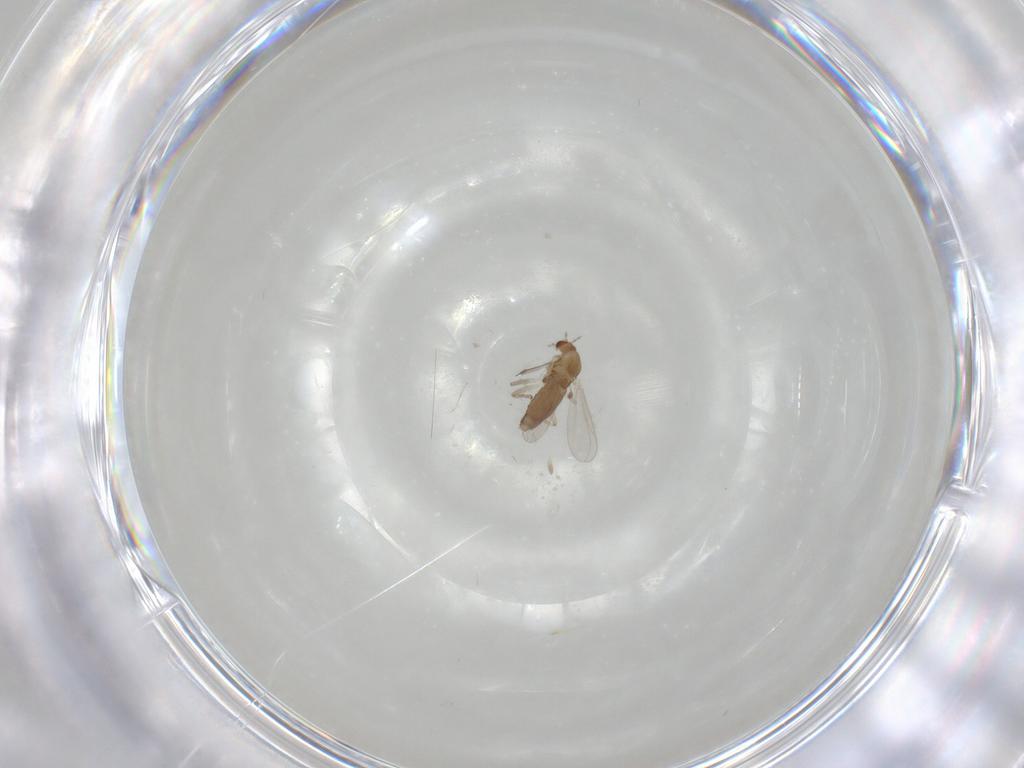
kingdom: Animalia
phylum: Arthropoda
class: Insecta
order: Diptera
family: Chironomidae
